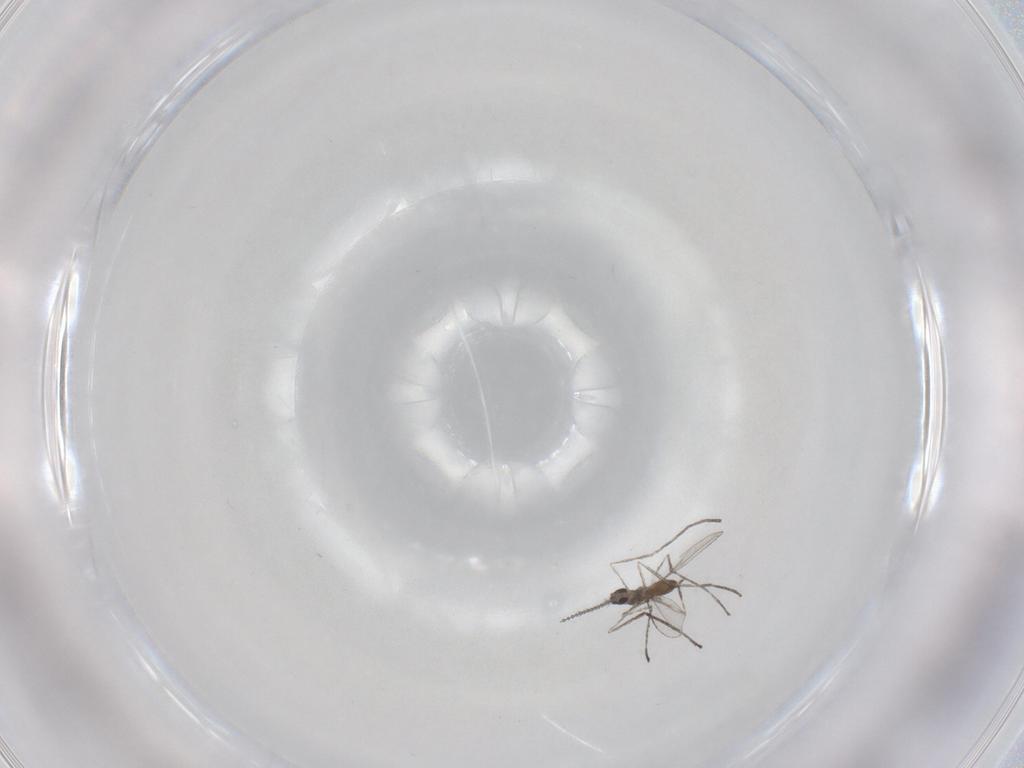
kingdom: Animalia
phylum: Arthropoda
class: Insecta
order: Diptera
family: Cecidomyiidae
